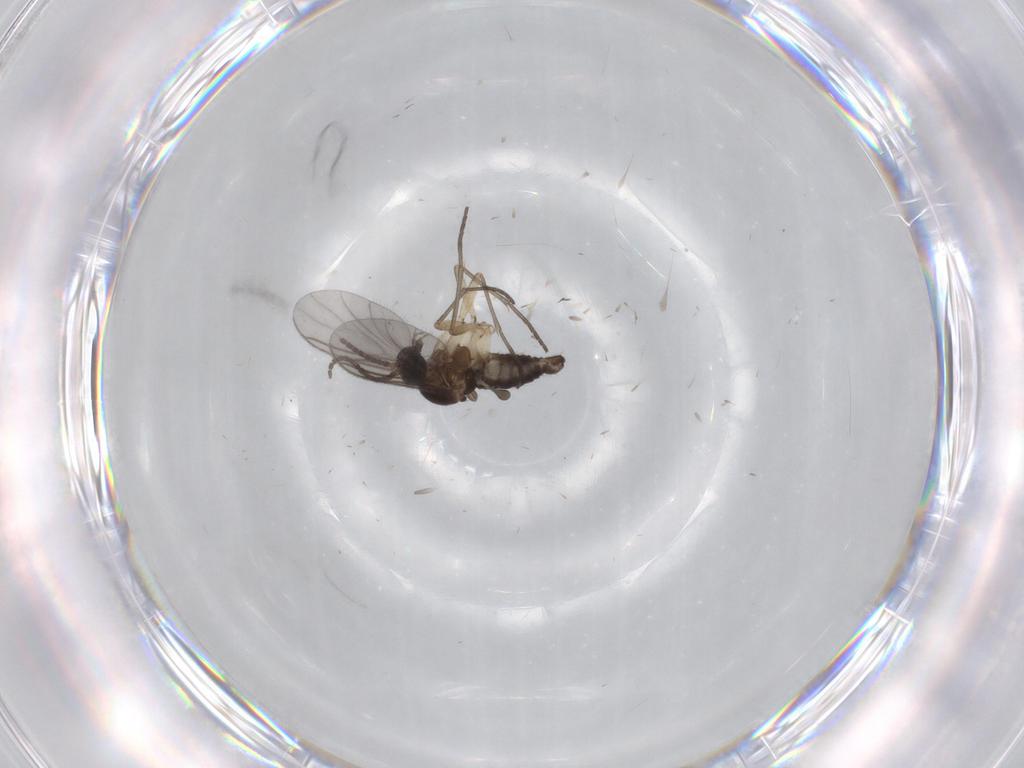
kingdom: Animalia
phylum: Arthropoda
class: Insecta
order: Diptera
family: Sciaridae
